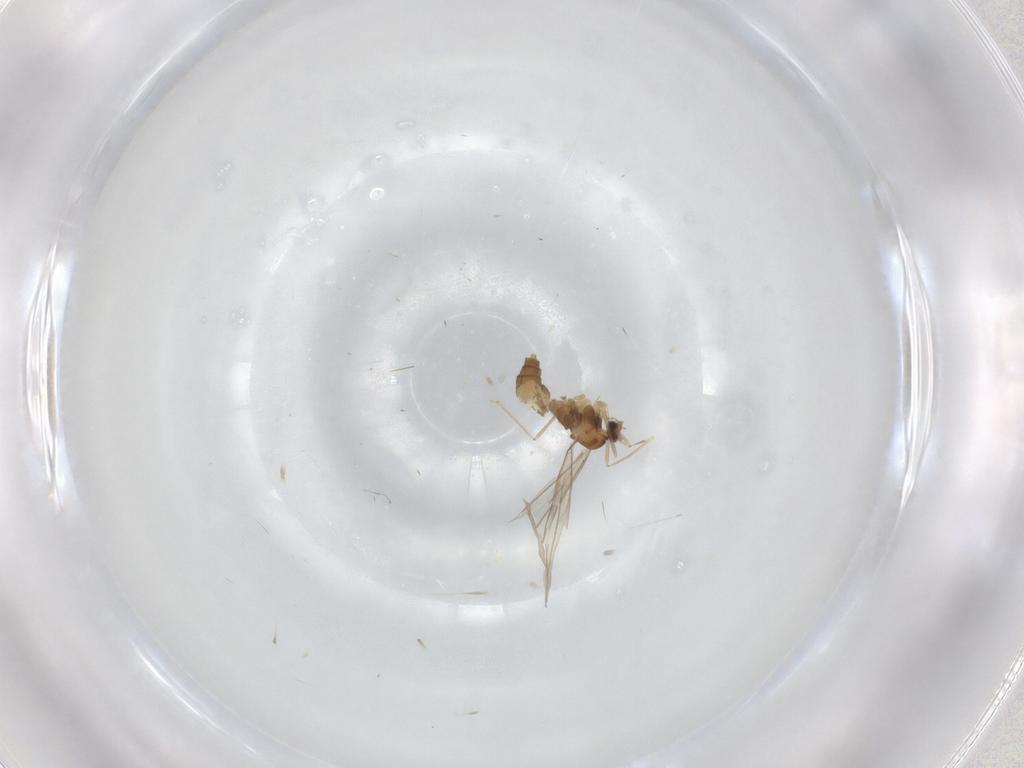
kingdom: Animalia
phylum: Arthropoda
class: Insecta
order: Diptera
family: Cecidomyiidae
